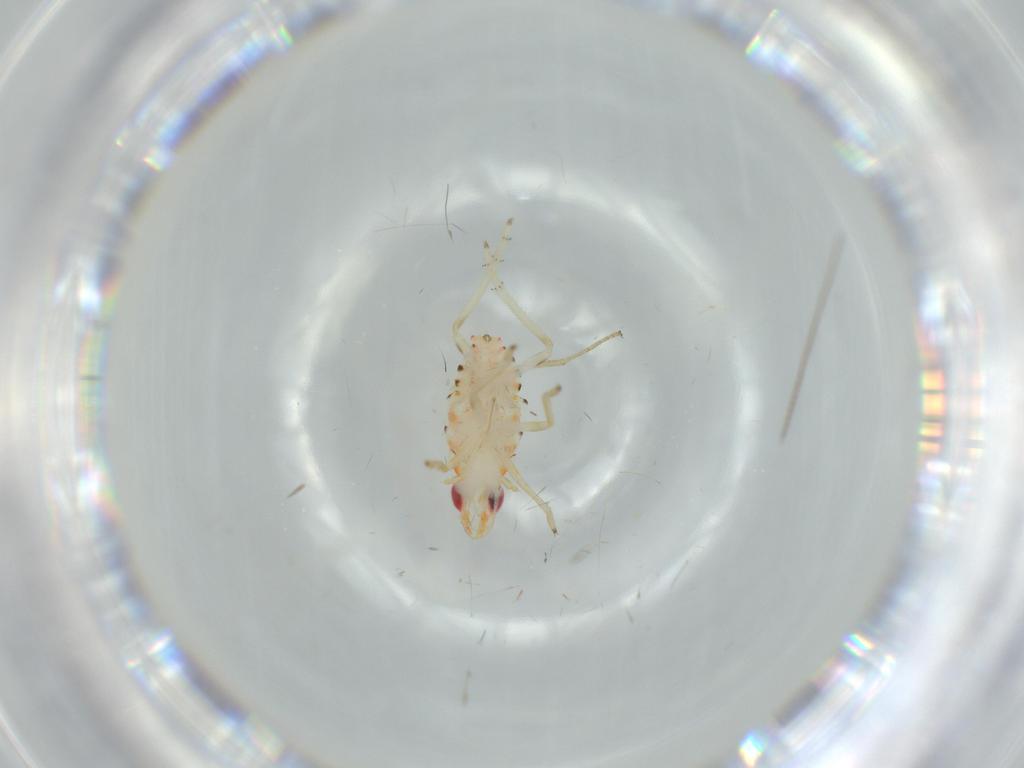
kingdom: Animalia
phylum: Arthropoda
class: Insecta
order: Hemiptera
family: Tropiduchidae
